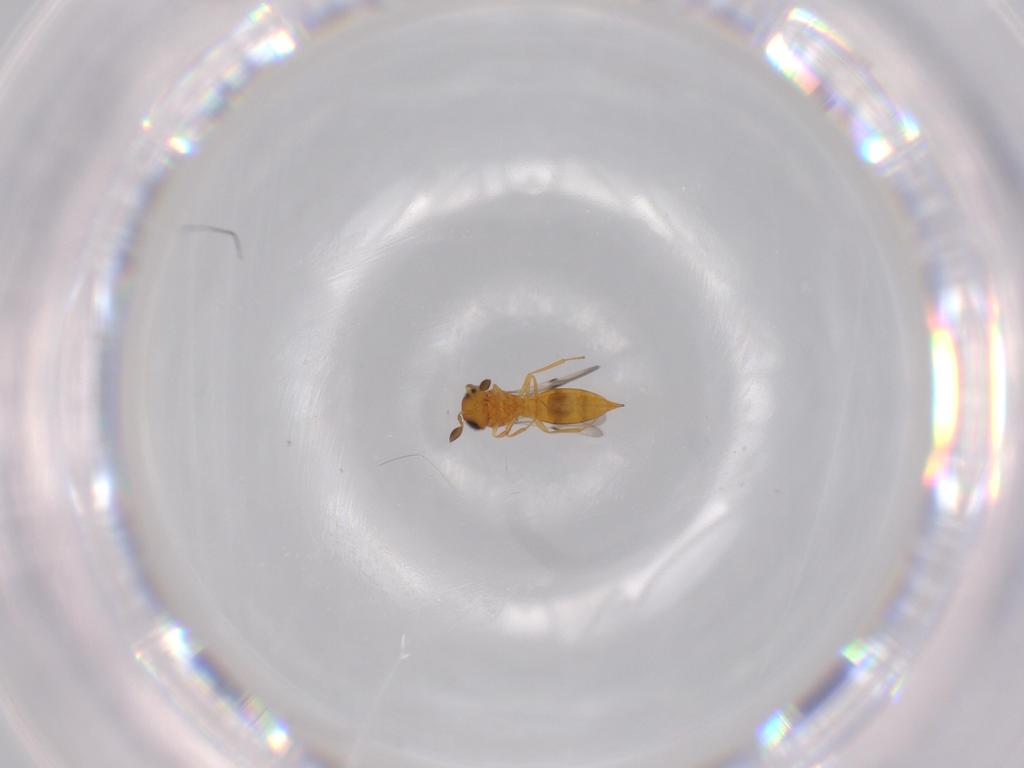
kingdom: Animalia
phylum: Arthropoda
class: Insecta
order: Hymenoptera
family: Scelionidae
